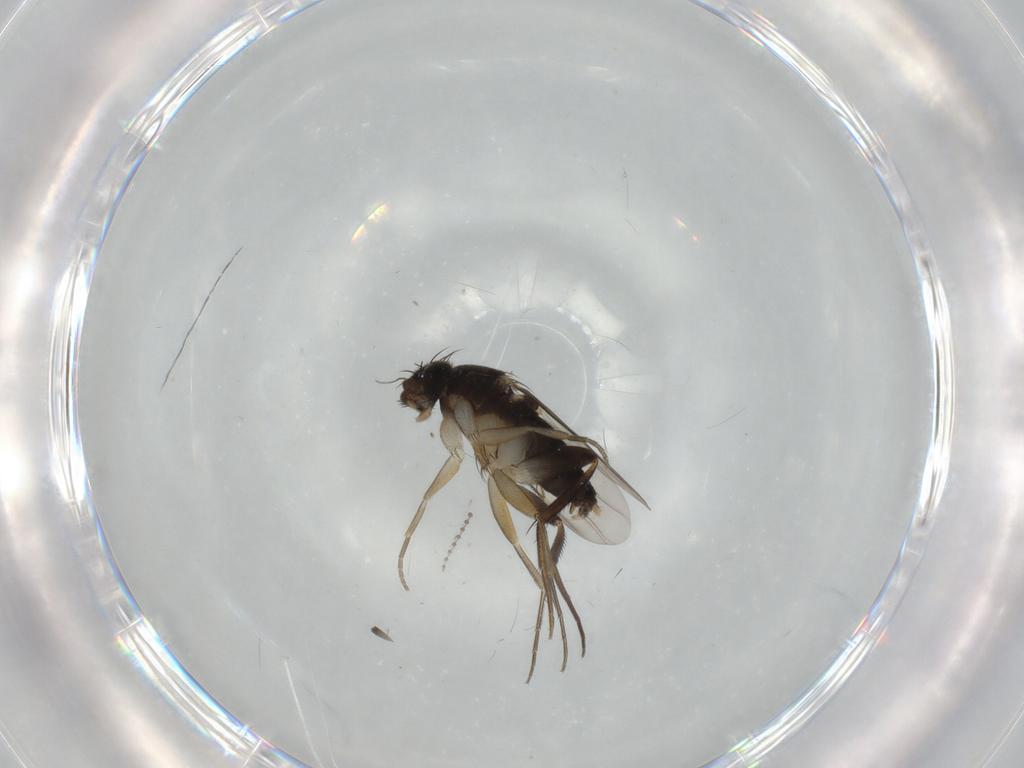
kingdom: Animalia
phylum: Arthropoda
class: Insecta
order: Diptera
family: Phoridae
